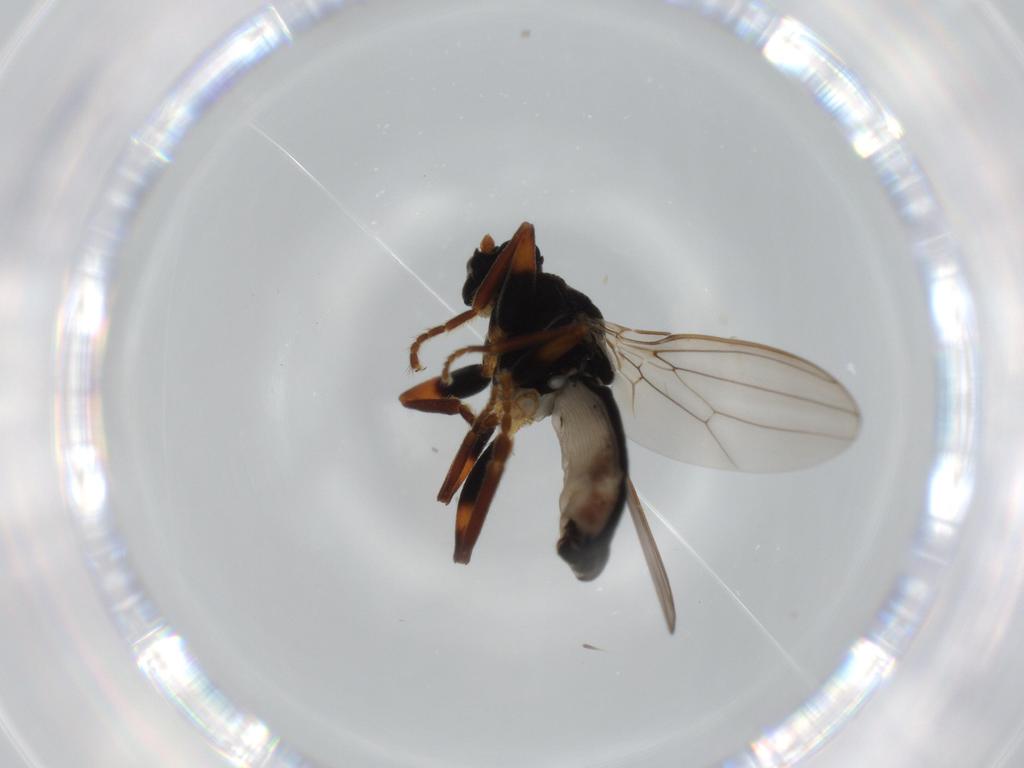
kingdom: Animalia
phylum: Arthropoda
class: Insecta
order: Diptera
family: Sphaeroceridae
